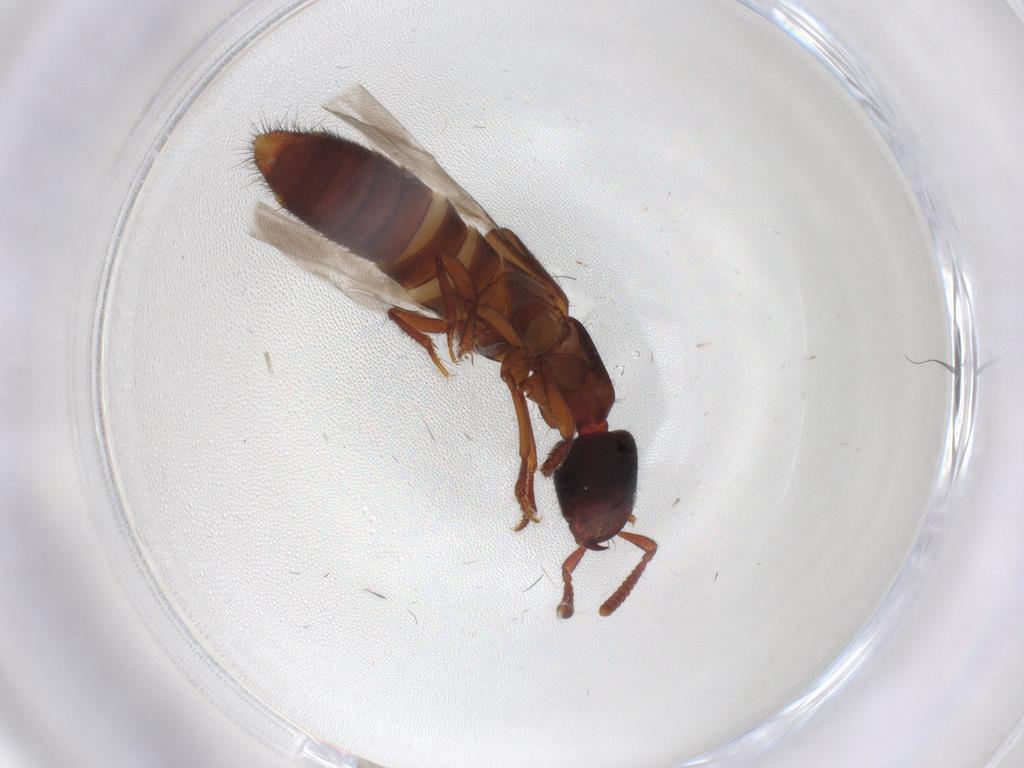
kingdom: Animalia
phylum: Arthropoda
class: Insecta
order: Coleoptera
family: Staphylinidae
